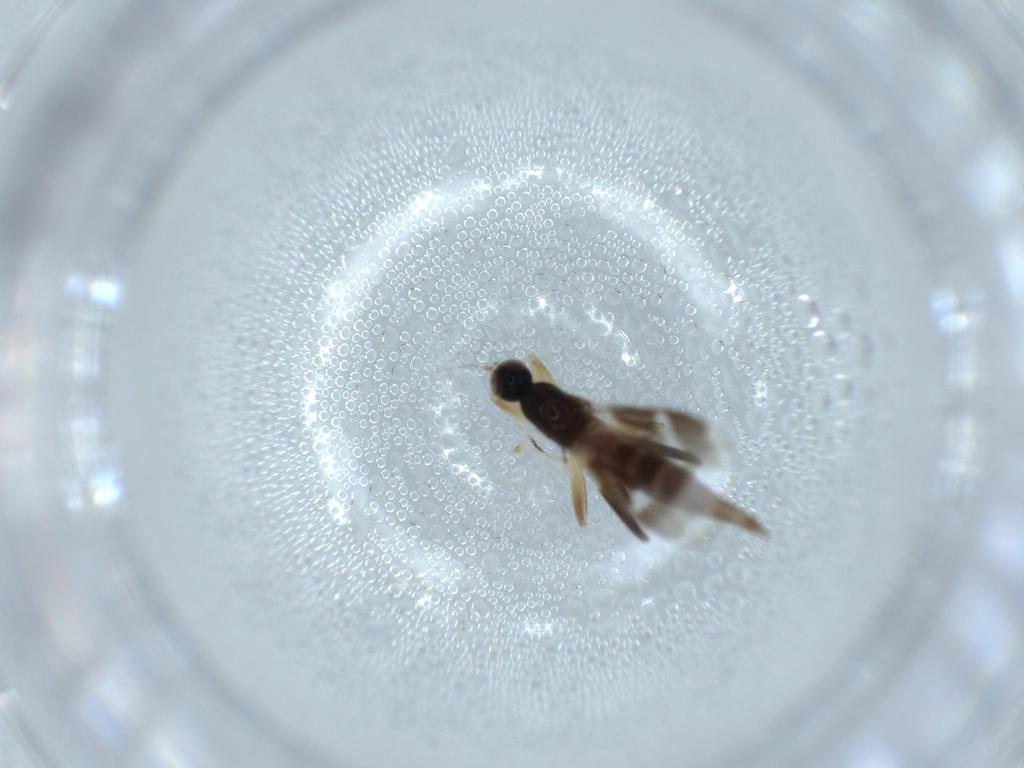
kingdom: Animalia
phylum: Arthropoda
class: Insecta
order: Diptera
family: Hybotidae
